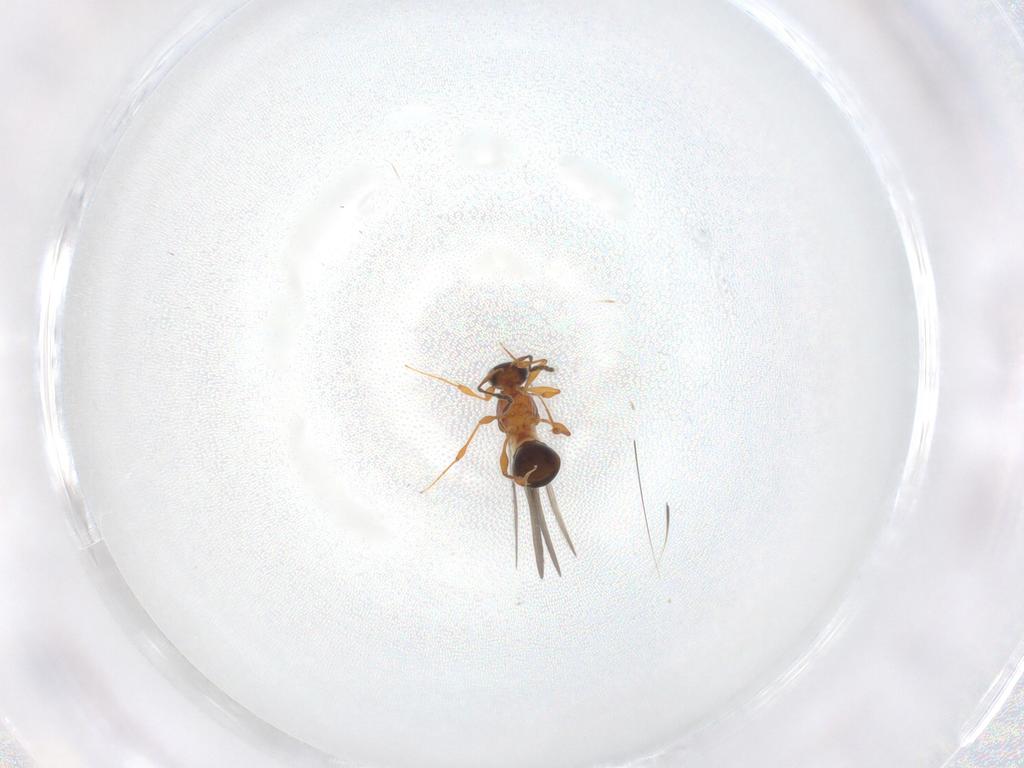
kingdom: Animalia
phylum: Arthropoda
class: Insecta
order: Hymenoptera
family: Platygastridae
